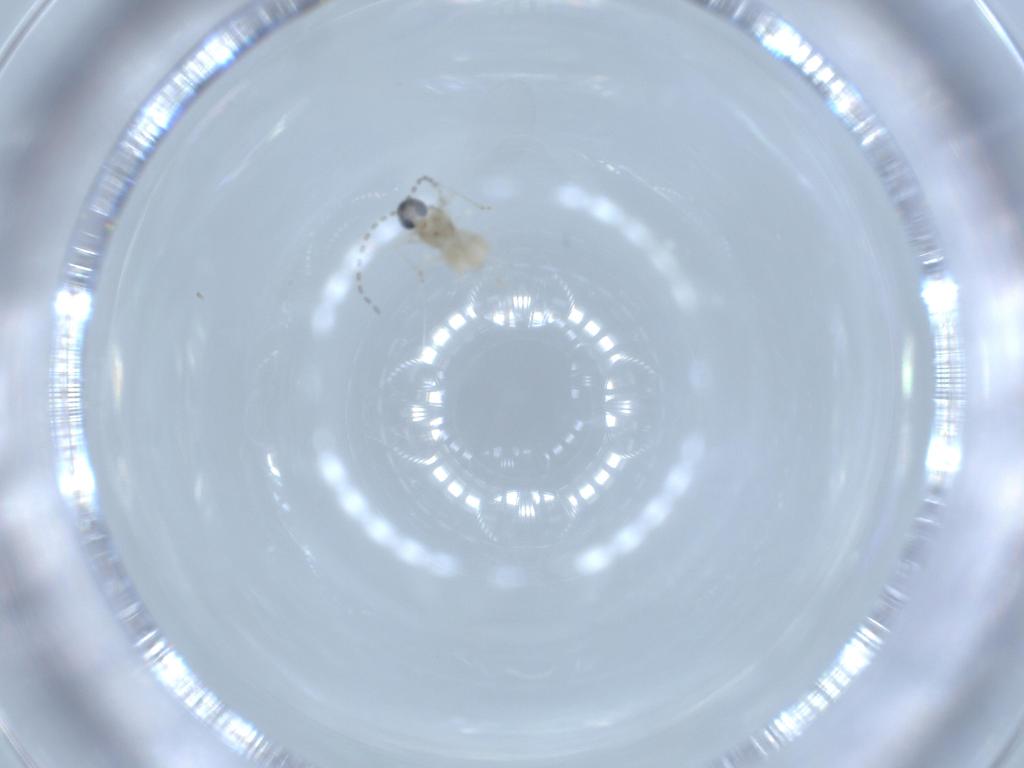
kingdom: Animalia
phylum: Arthropoda
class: Insecta
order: Diptera
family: Cecidomyiidae
